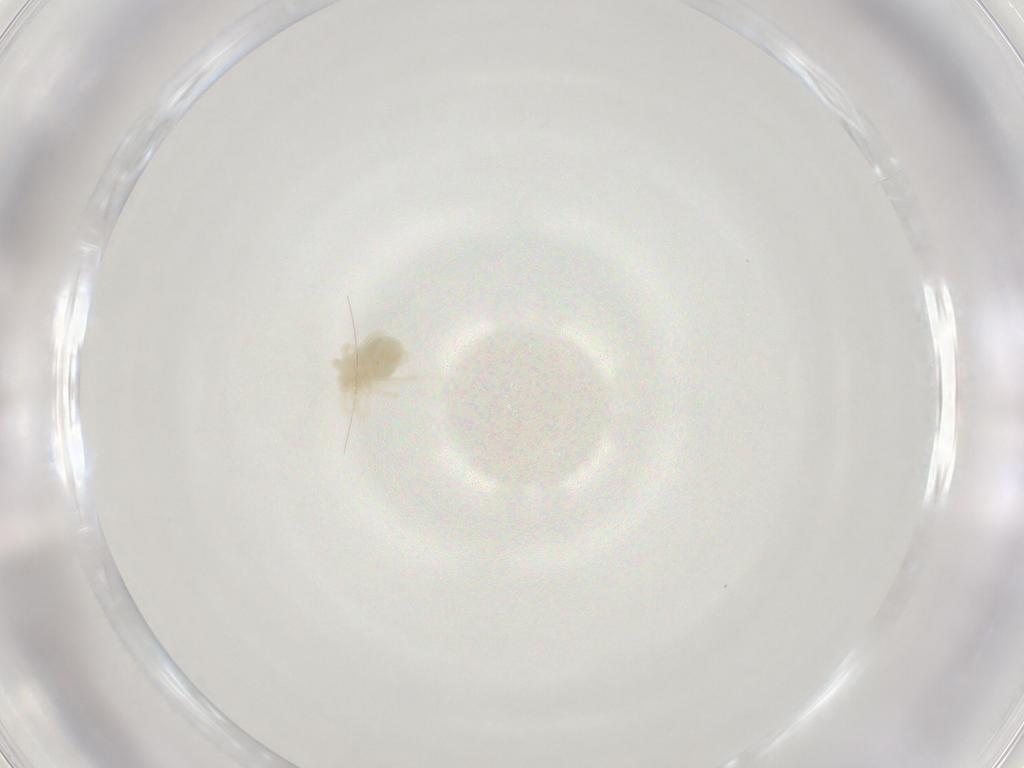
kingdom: Animalia
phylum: Arthropoda
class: Arachnida
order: Trombidiformes
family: Anystidae
